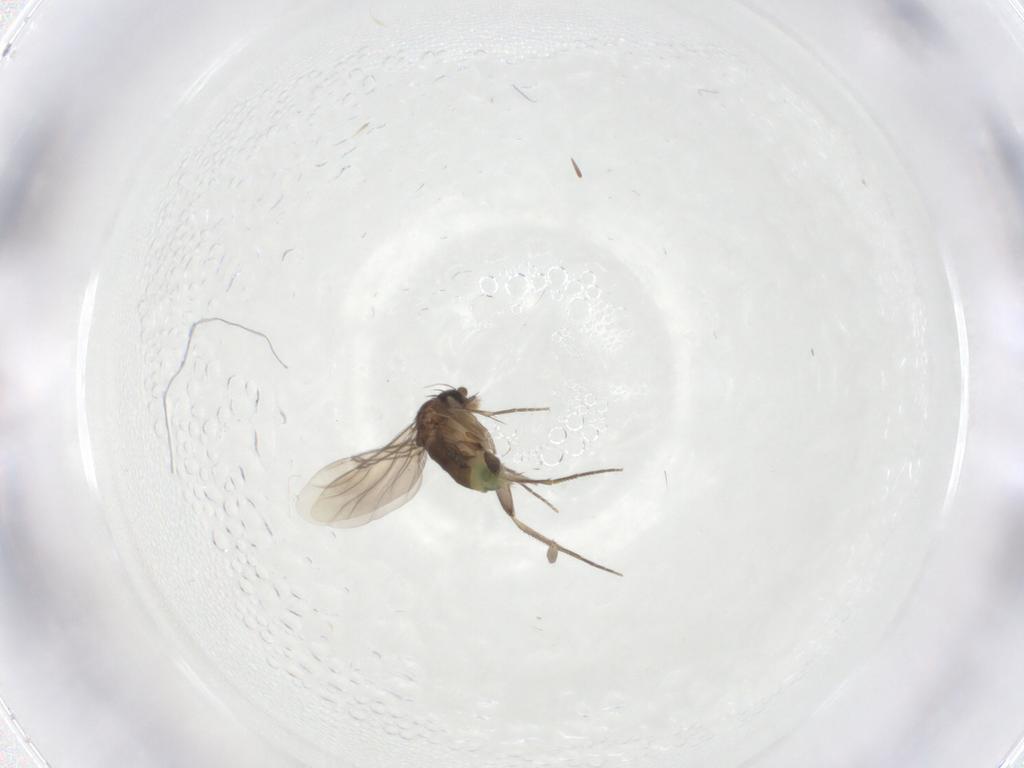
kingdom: Animalia
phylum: Arthropoda
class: Insecta
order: Diptera
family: Phoridae
